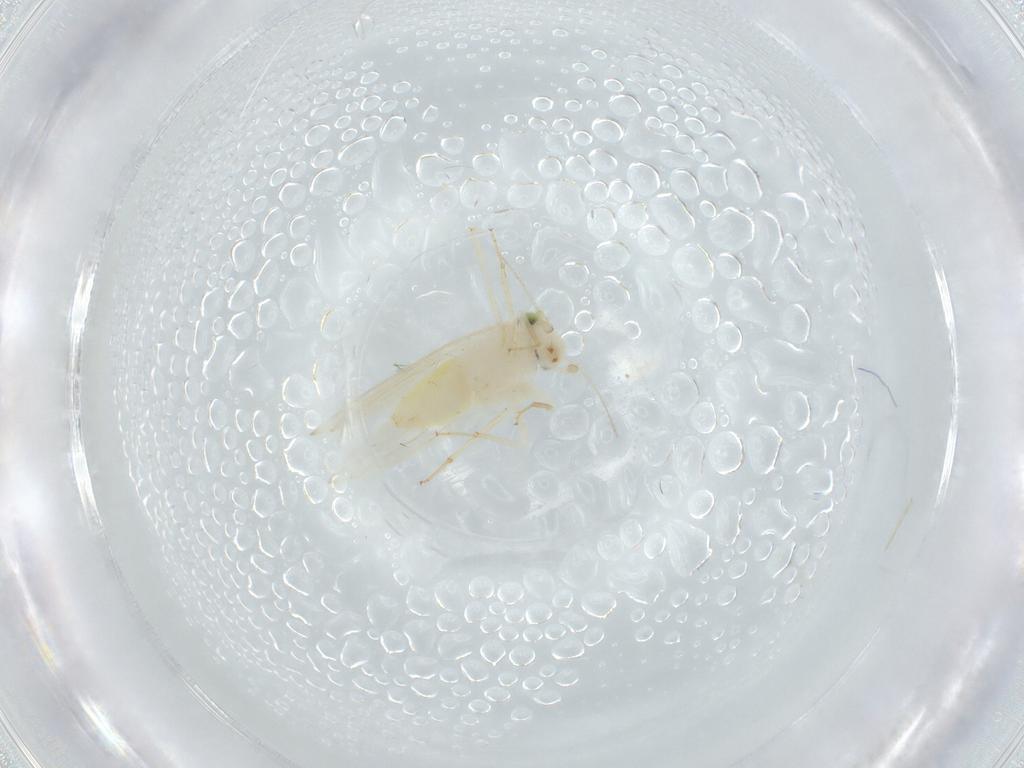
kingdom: Animalia
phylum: Arthropoda
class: Insecta
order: Psocodea
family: Lepidopsocidae
